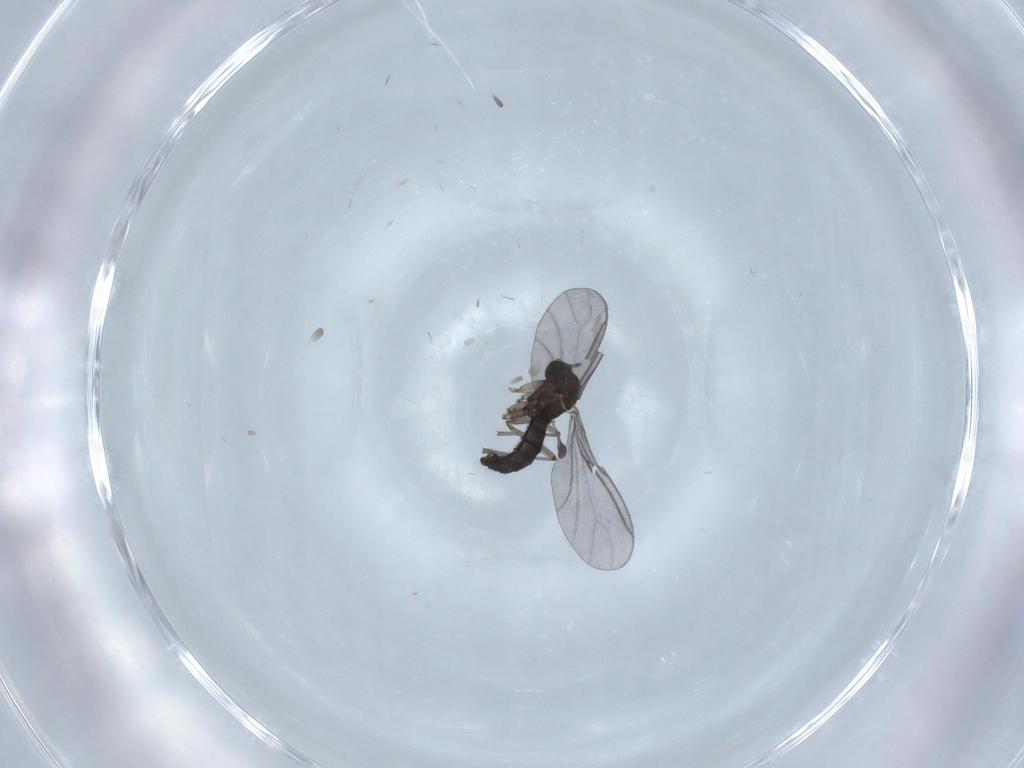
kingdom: Animalia
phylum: Arthropoda
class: Insecta
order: Diptera
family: Sciaridae
